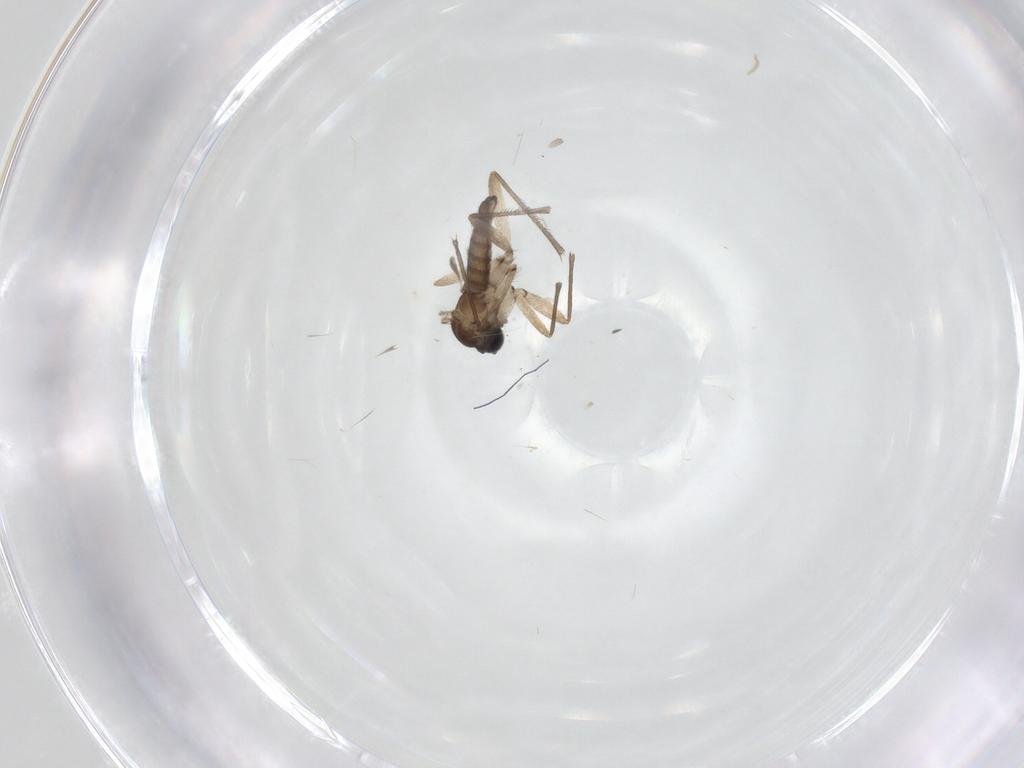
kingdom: Animalia
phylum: Arthropoda
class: Insecta
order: Diptera
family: Sciaridae
